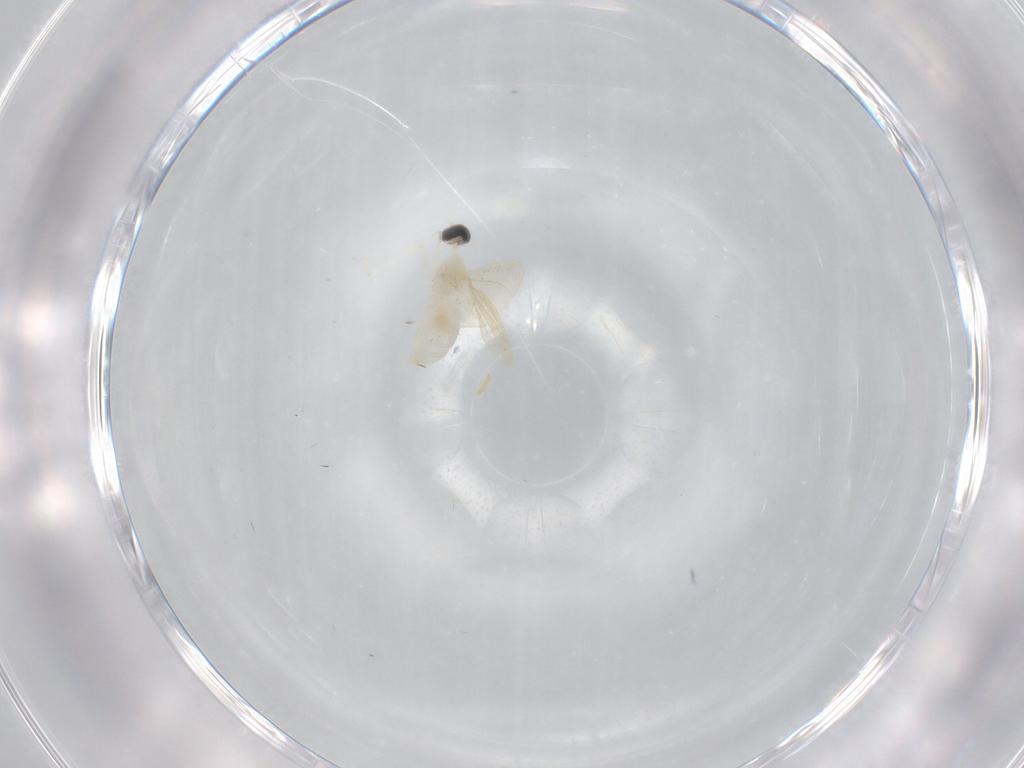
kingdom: Animalia
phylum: Arthropoda
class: Insecta
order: Diptera
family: Cecidomyiidae
